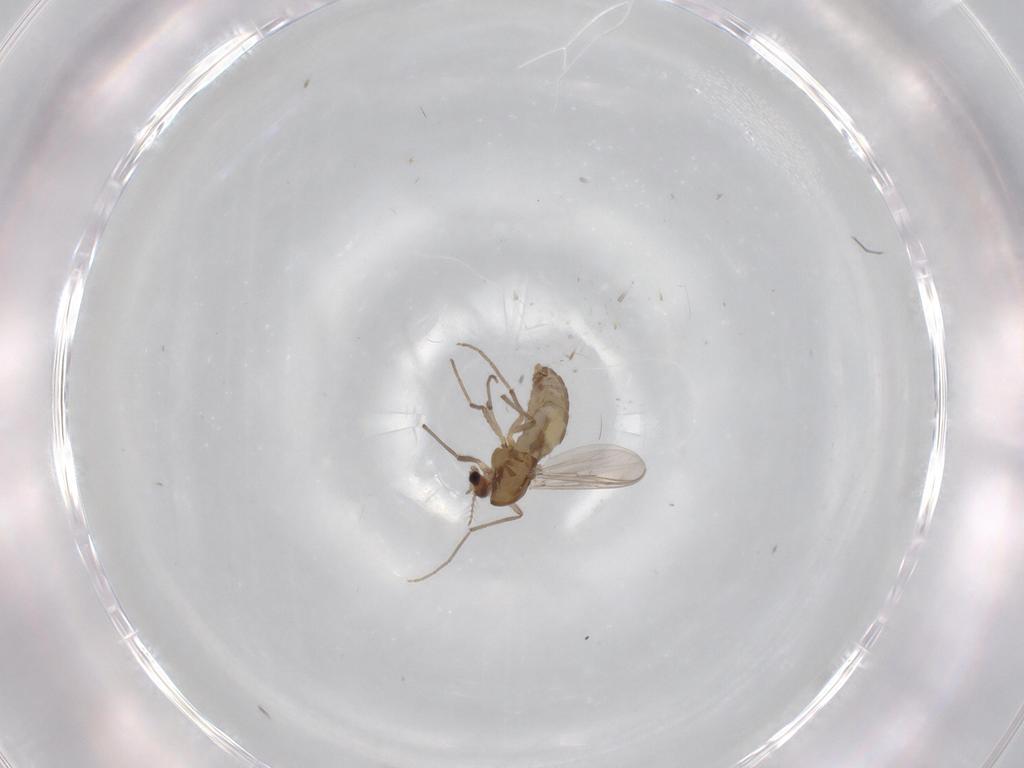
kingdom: Animalia
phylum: Arthropoda
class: Insecta
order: Diptera
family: Chironomidae
